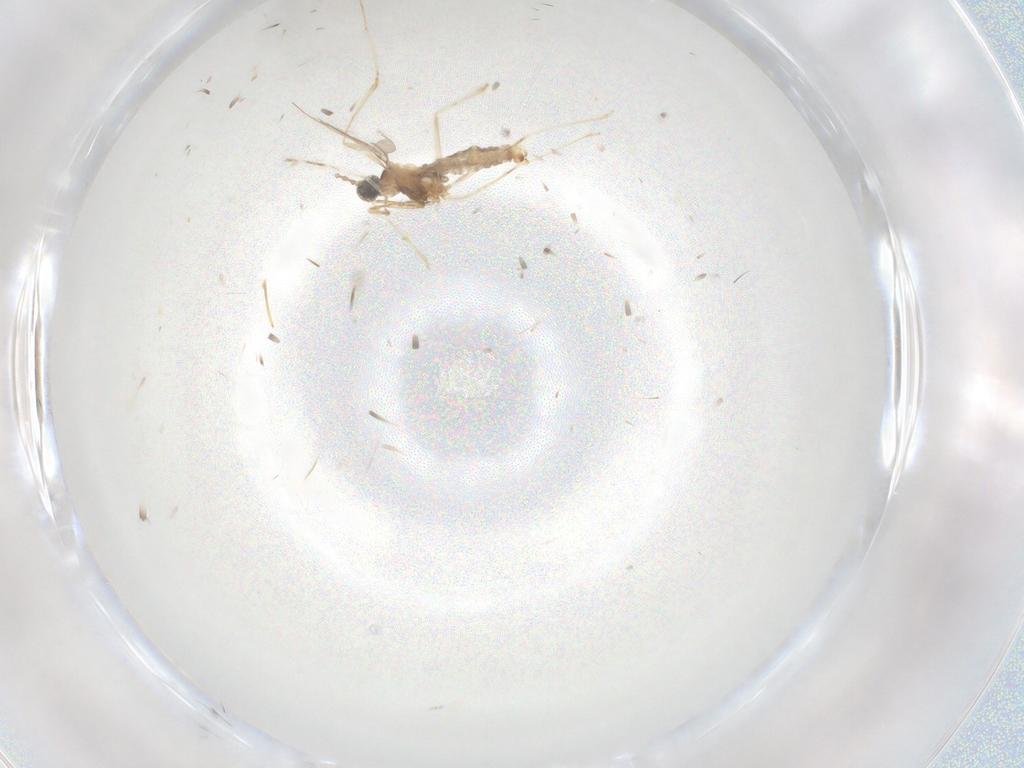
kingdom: Animalia
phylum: Arthropoda
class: Insecta
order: Diptera
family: Cecidomyiidae
